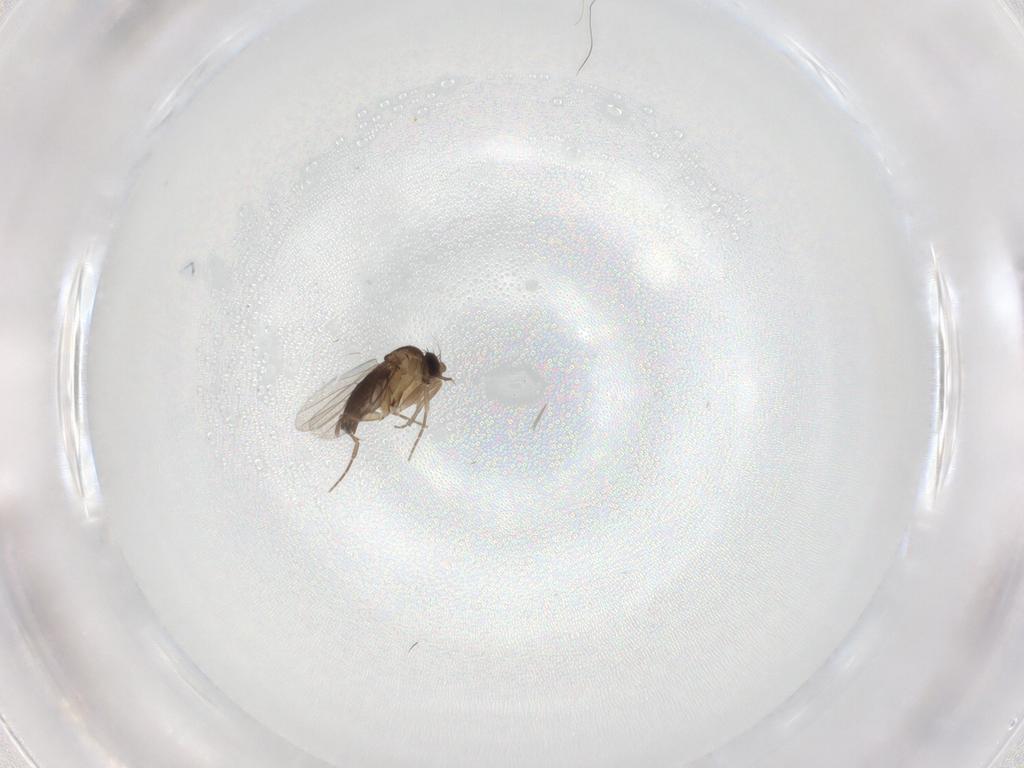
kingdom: Animalia
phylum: Arthropoda
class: Insecta
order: Diptera
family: Phoridae
